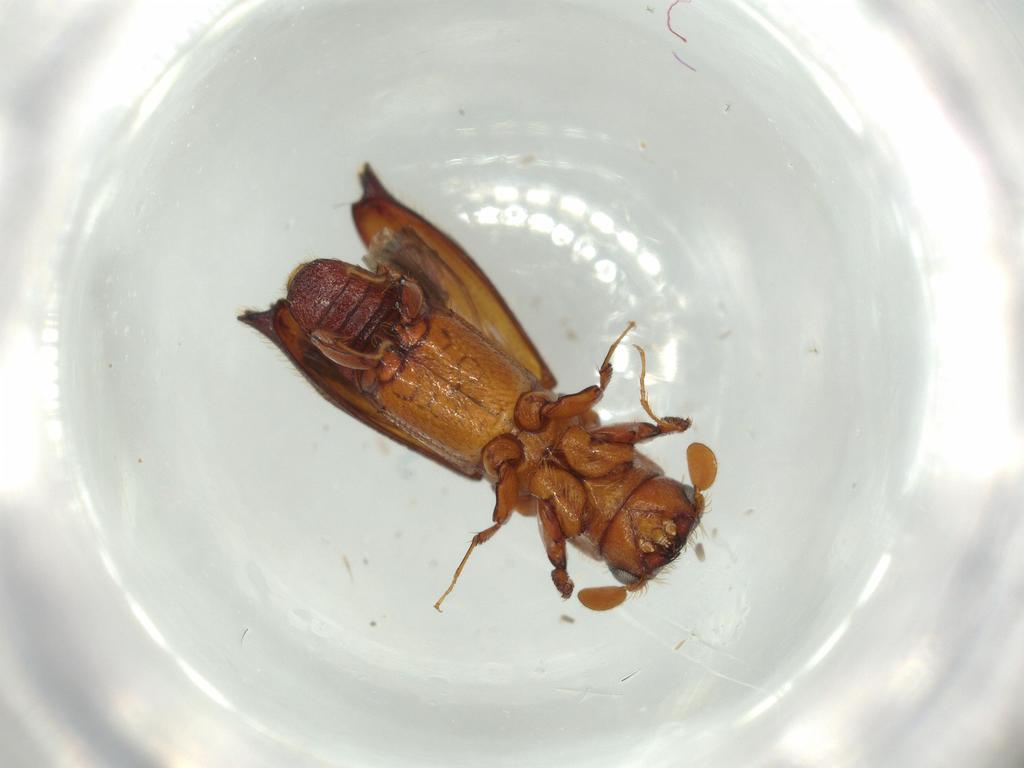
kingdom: Animalia
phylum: Arthropoda
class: Insecta
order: Coleoptera
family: Curculionidae
